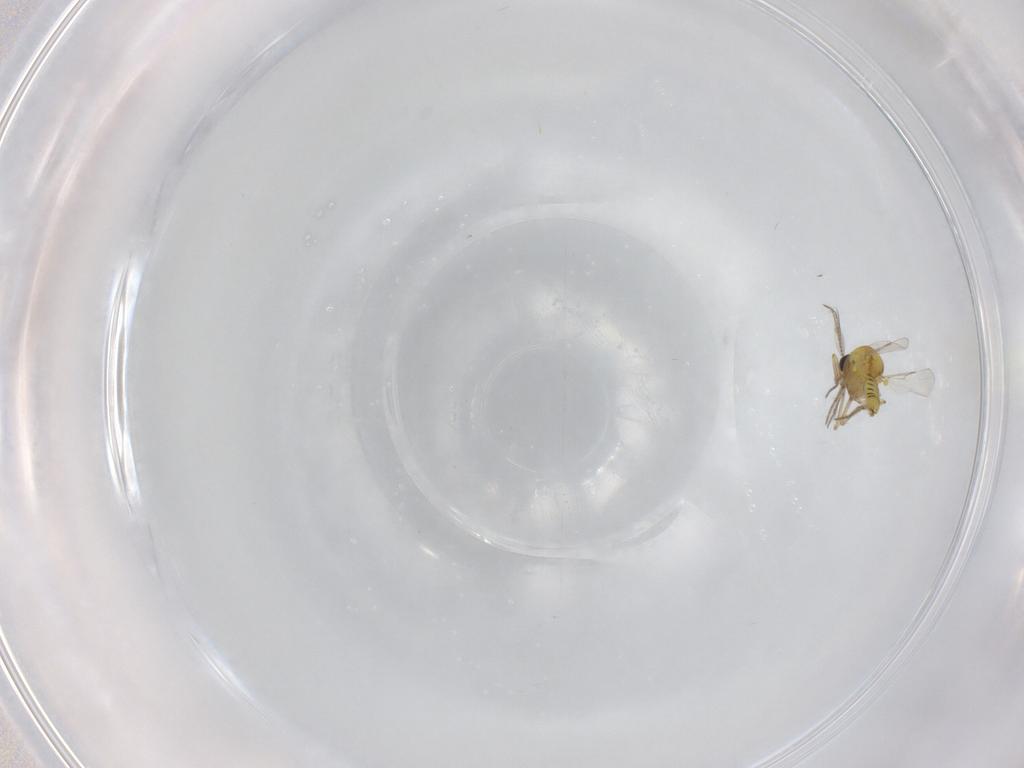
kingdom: Animalia
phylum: Arthropoda
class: Insecta
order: Diptera
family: Ceratopogonidae
